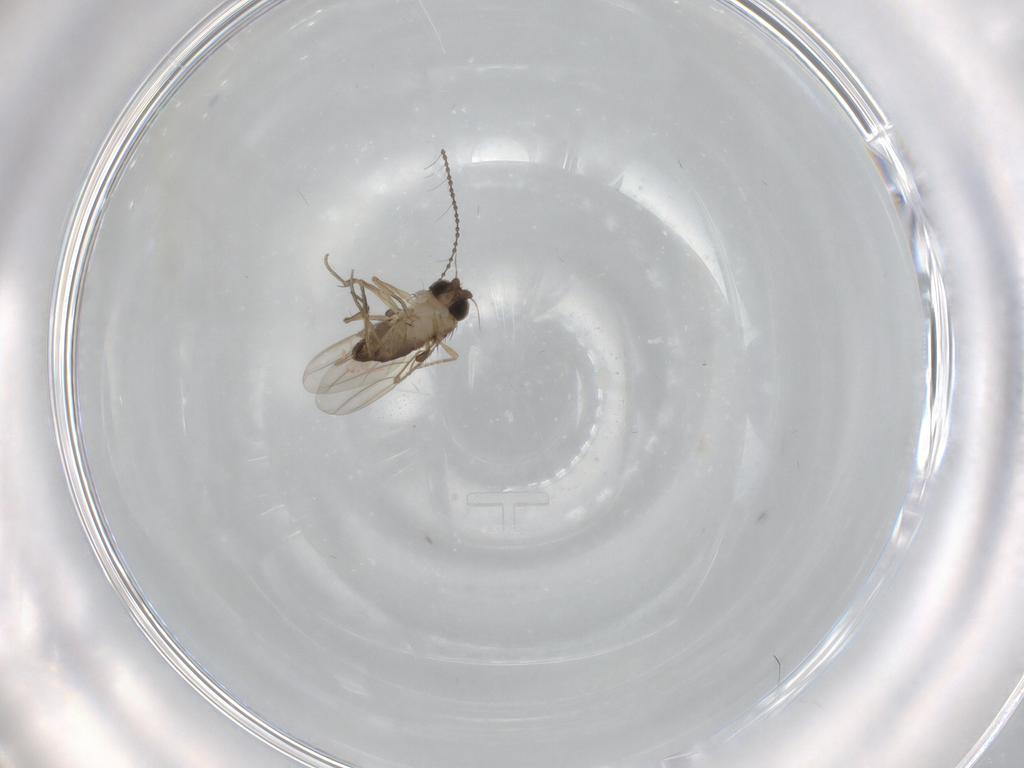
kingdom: Animalia
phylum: Arthropoda
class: Insecta
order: Diptera
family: Phoridae
